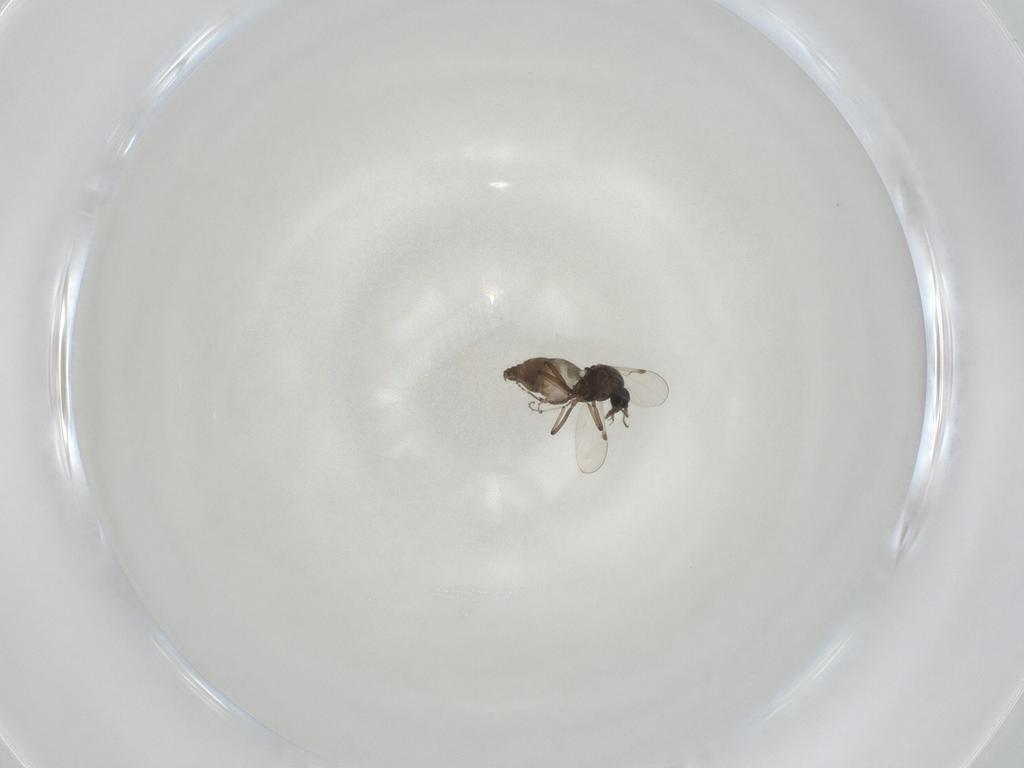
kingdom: Animalia
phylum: Arthropoda
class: Insecta
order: Diptera
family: Chironomidae
